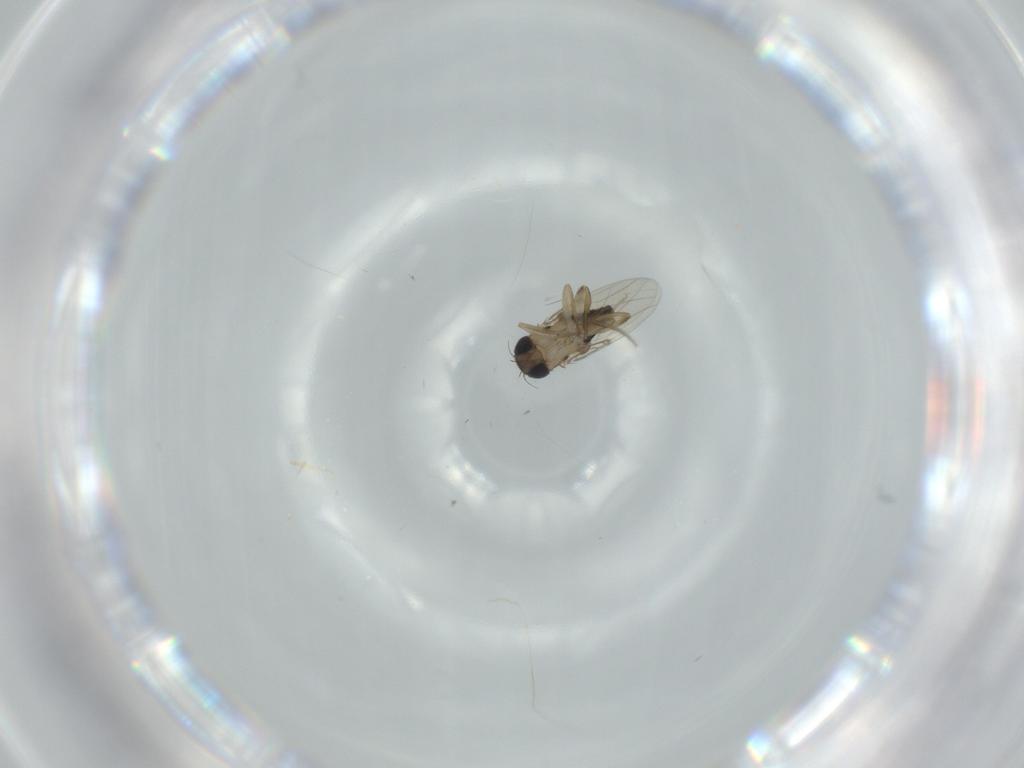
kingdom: Animalia
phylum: Arthropoda
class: Insecta
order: Diptera
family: Phoridae
